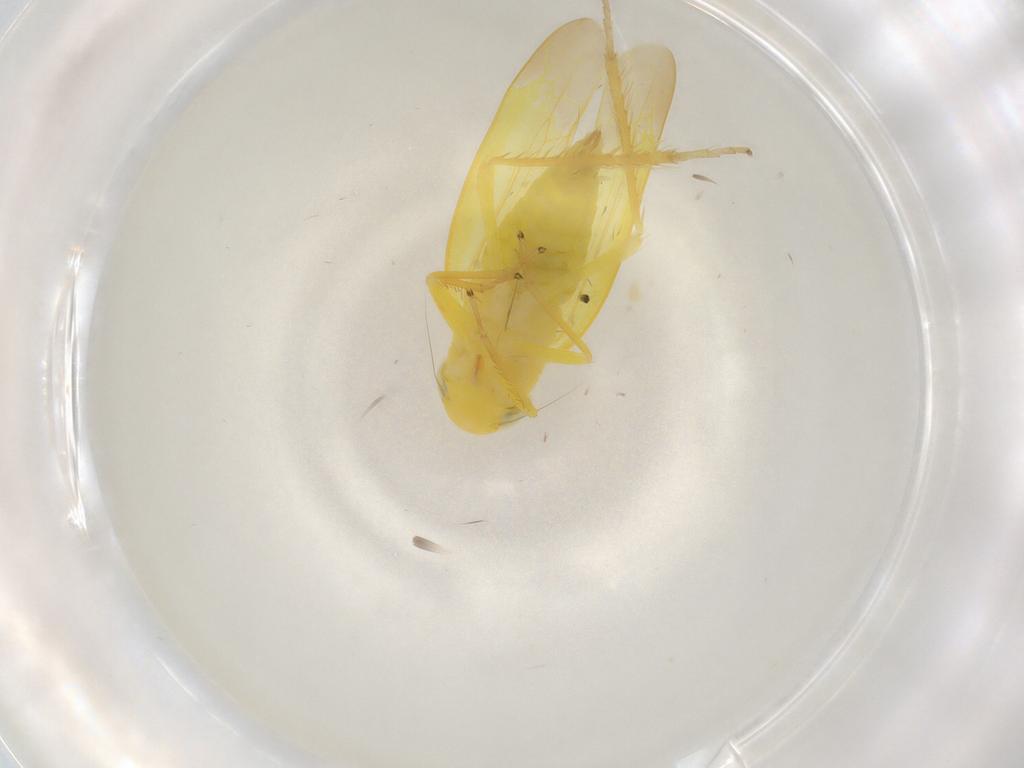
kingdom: Animalia
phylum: Arthropoda
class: Insecta
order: Hemiptera
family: Cicadellidae
